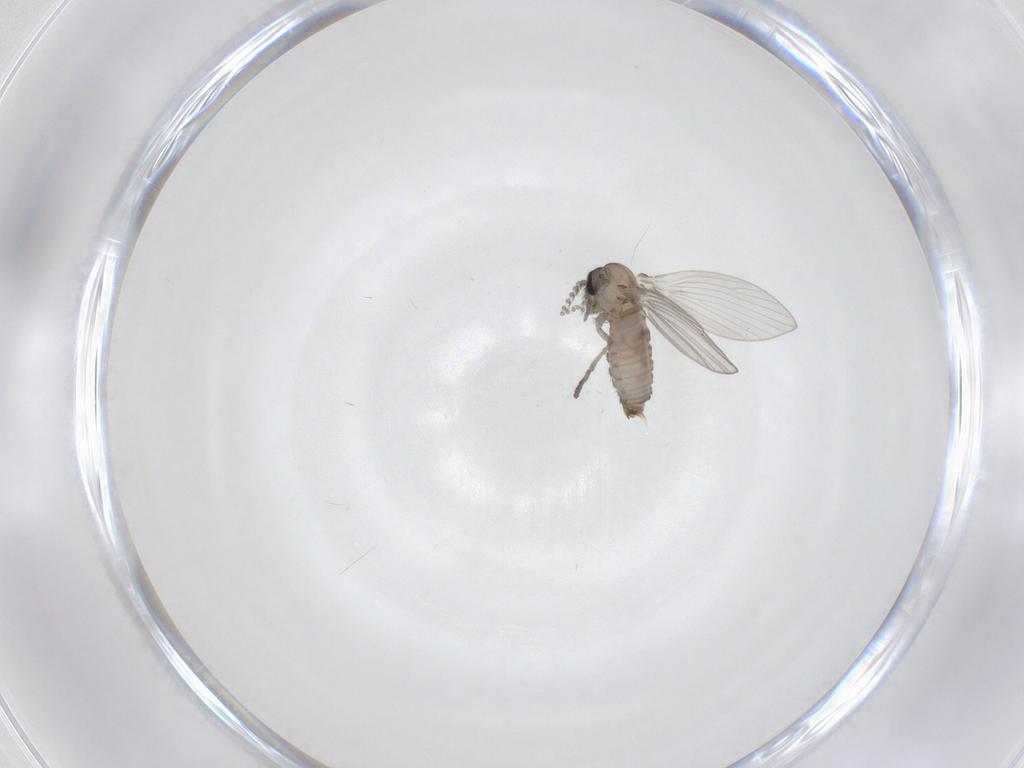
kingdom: Animalia
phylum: Arthropoda
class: Insecta
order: Diptera
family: Psychodidae
